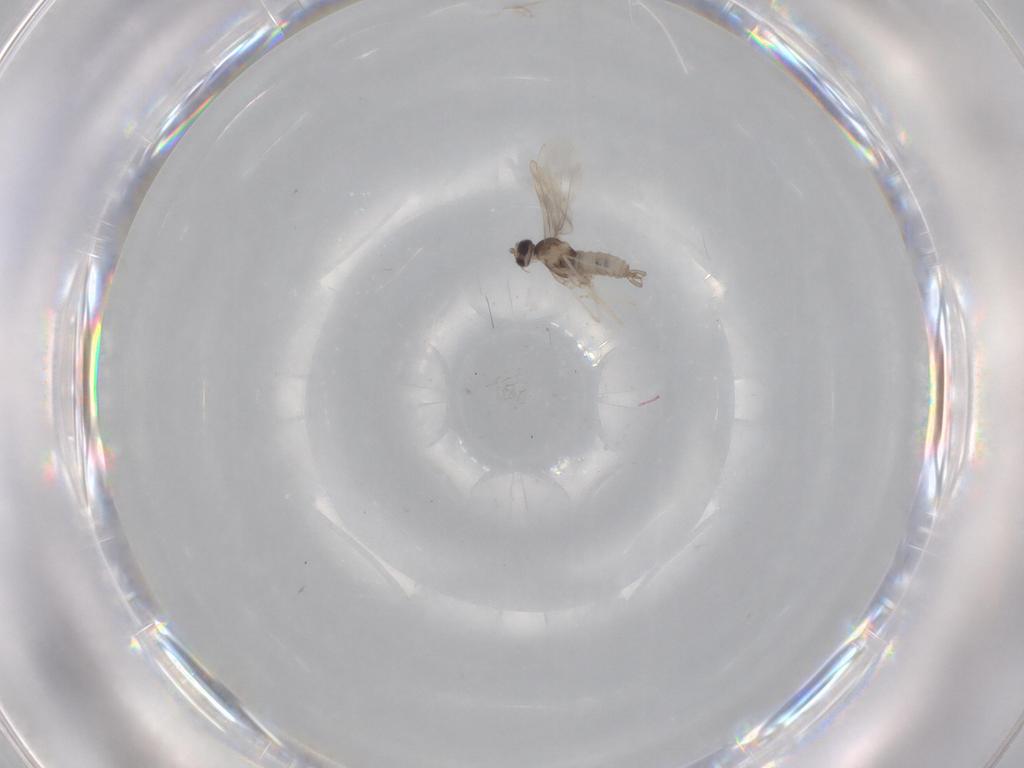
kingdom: Animalia
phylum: Arthropoda
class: Insecta
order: Diptera
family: Cecidomyiidae
